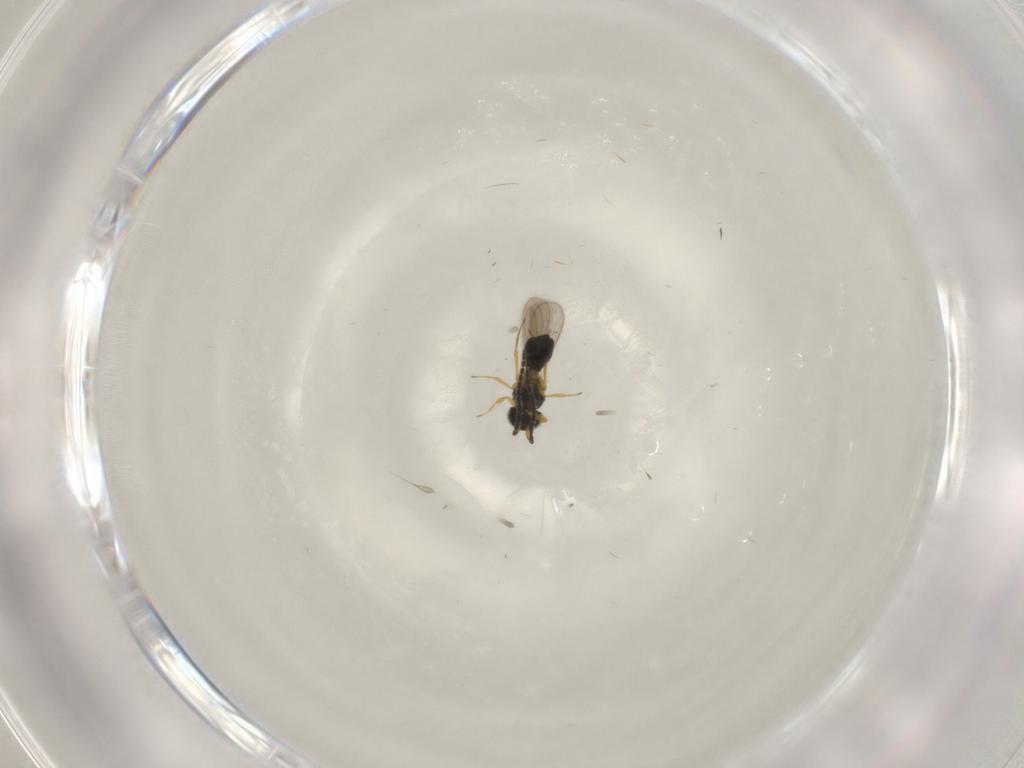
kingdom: Animalia
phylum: Arthropoda
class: Insecta
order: Hymenoptera
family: Scelionidae
